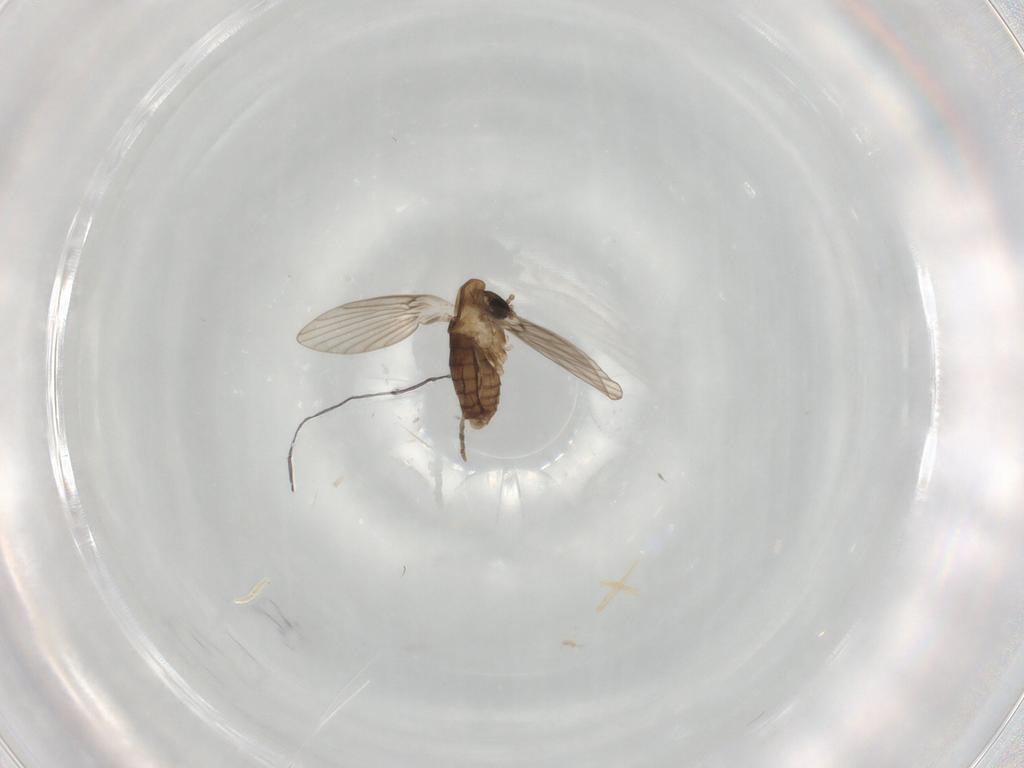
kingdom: Animalia
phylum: Arthropoda
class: Insecta
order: Diptera
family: Psychodidae
